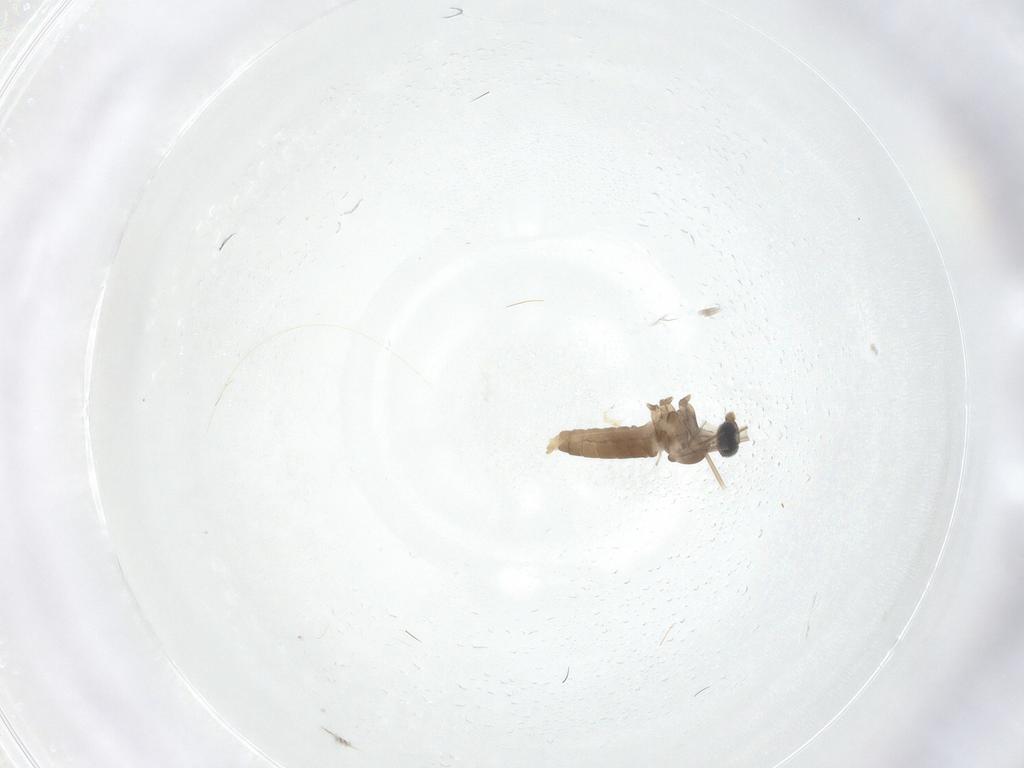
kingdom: Animalia
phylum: Arthropoda
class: Insecta
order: Diptera
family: Cecidomyiidae
